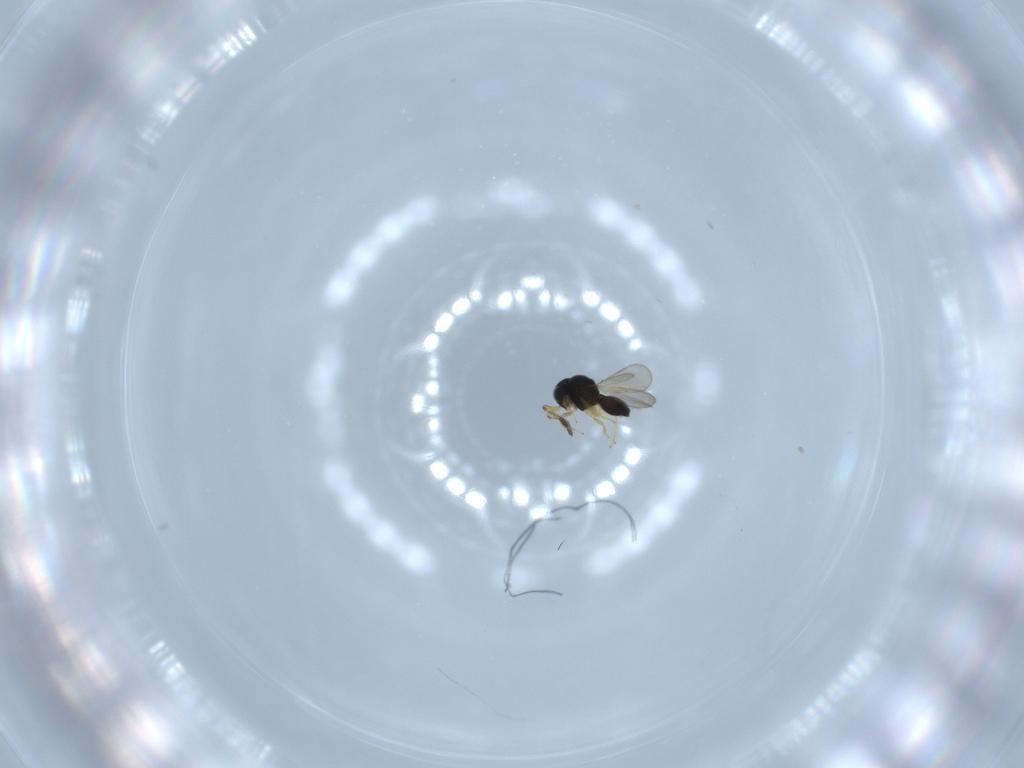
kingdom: Animalia
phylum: Arthropoda
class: Insecta
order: Hymenoptera
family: Scelionidae
